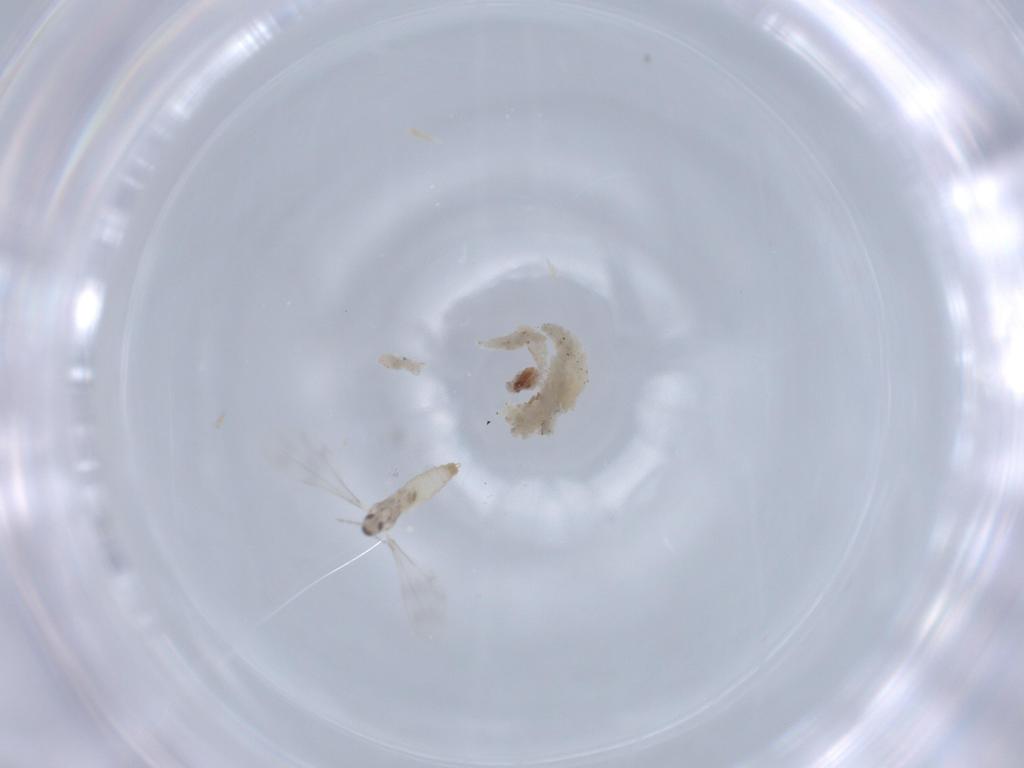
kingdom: Animalia
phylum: Arthropoda
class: Insecta
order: Diptera
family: Cecidomyiidae
